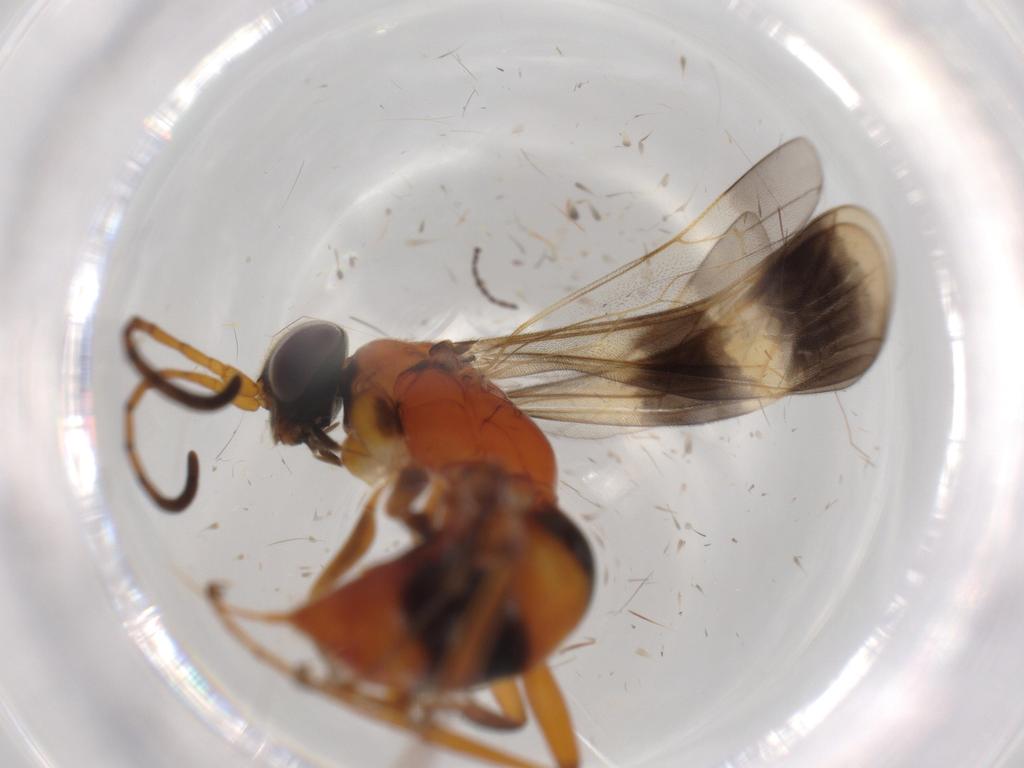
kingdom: Animalia
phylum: Arthropoda
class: Insecta
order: Hymenoptera
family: Pompilidae
